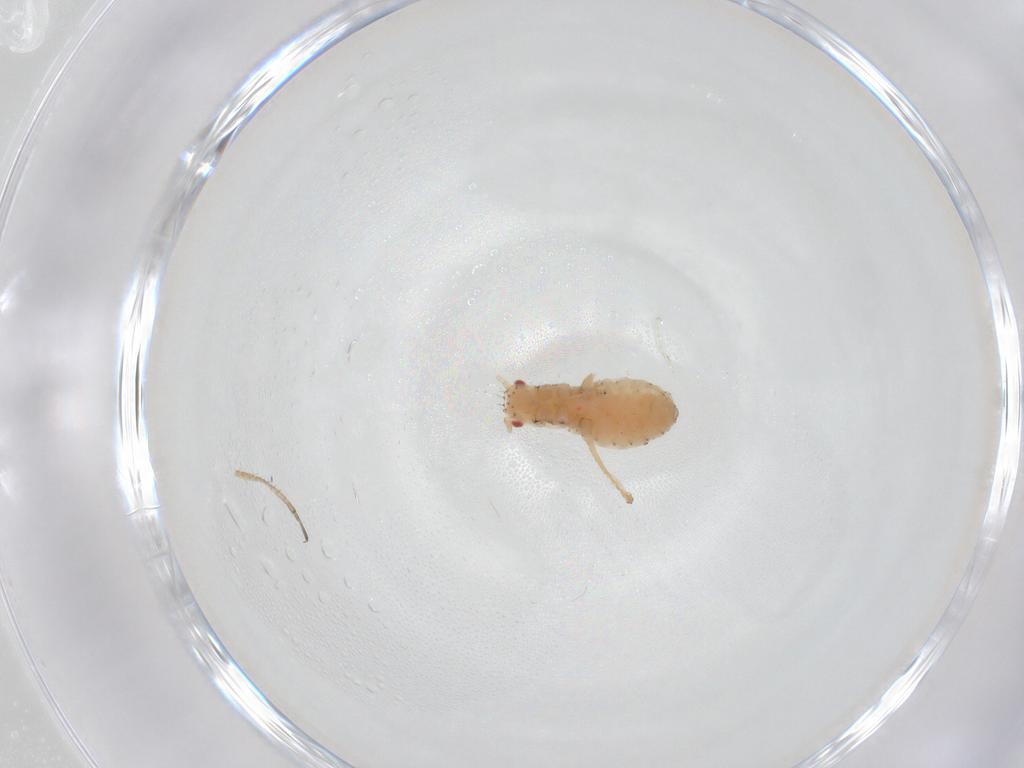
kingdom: Animalia
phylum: Arthropoda
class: Insecta
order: Hemiptera
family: Aphididae
